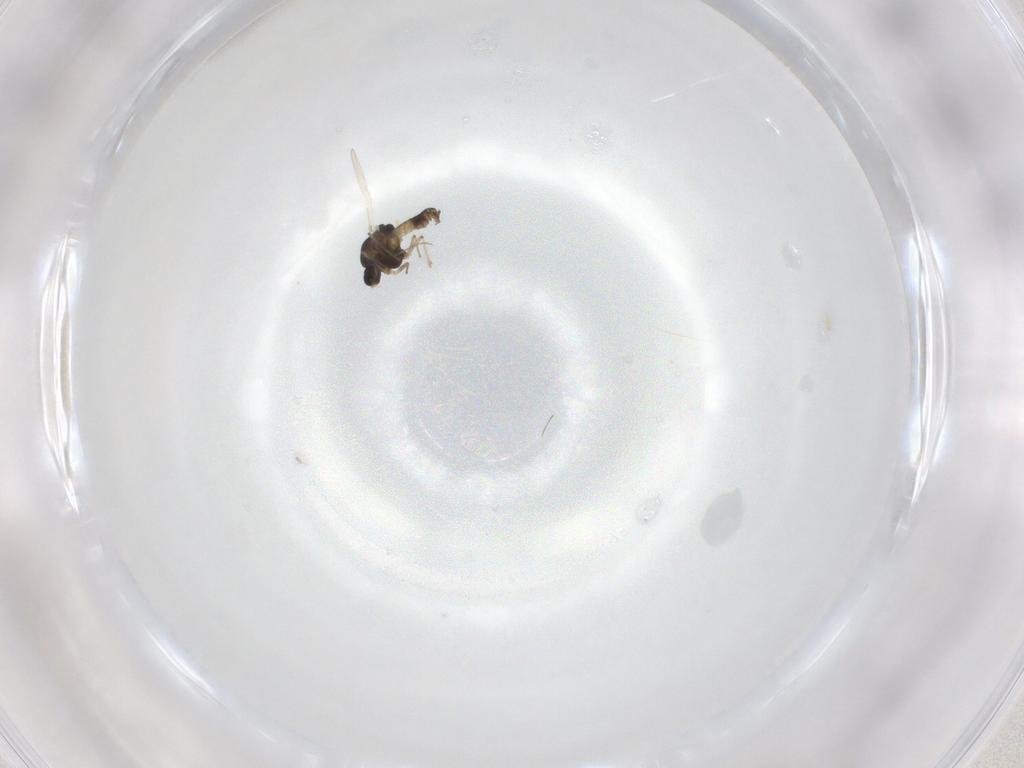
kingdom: Animalia
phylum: Arthropoda
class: Insecta
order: Diptera
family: Chironomidae
